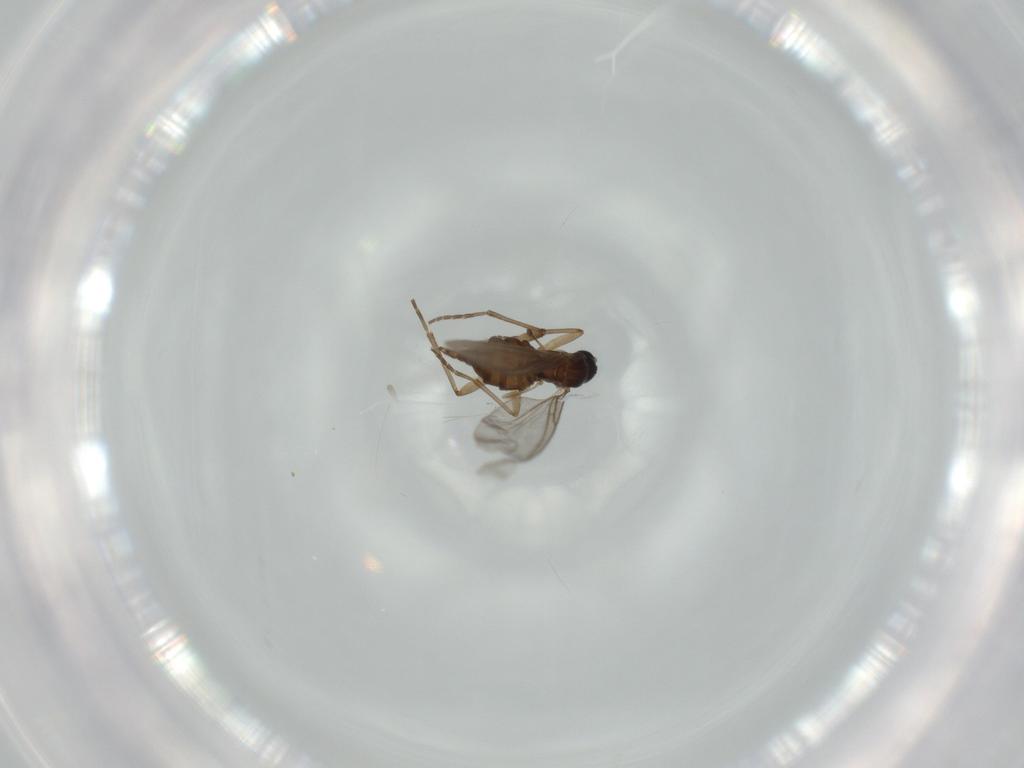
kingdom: Animalia
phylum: Arthropoda
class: Insecta
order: Diptera
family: Sciaridae
